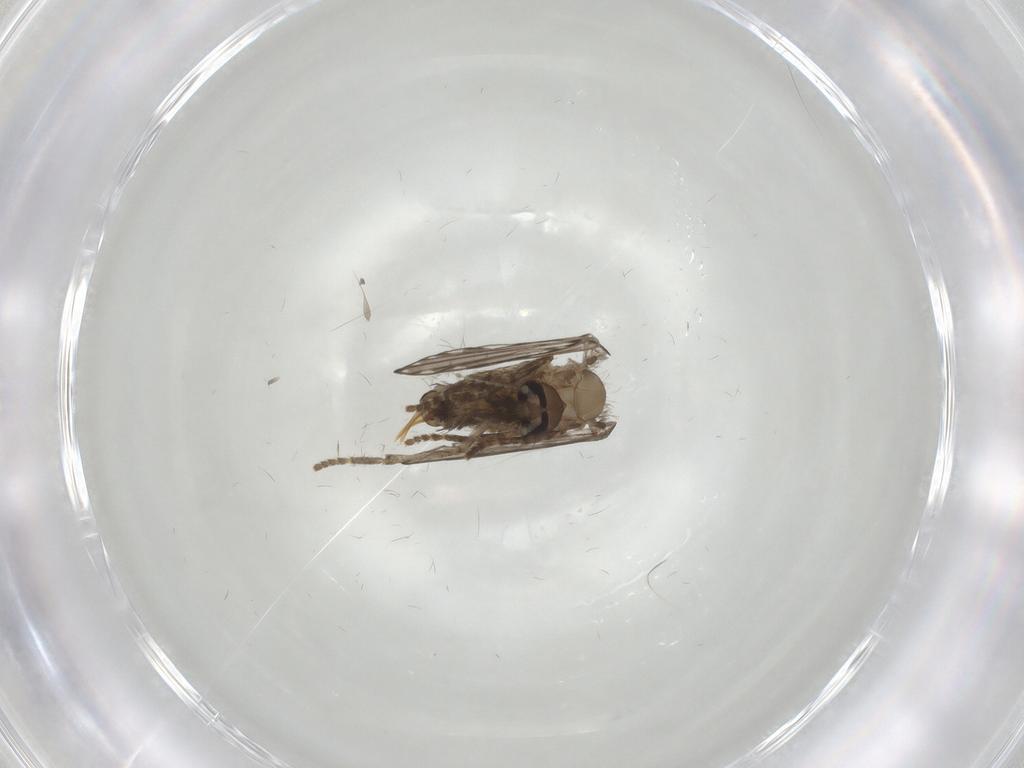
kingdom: Animalia
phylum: Arthropoda
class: Insecta
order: Diptera
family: Psychodidae
